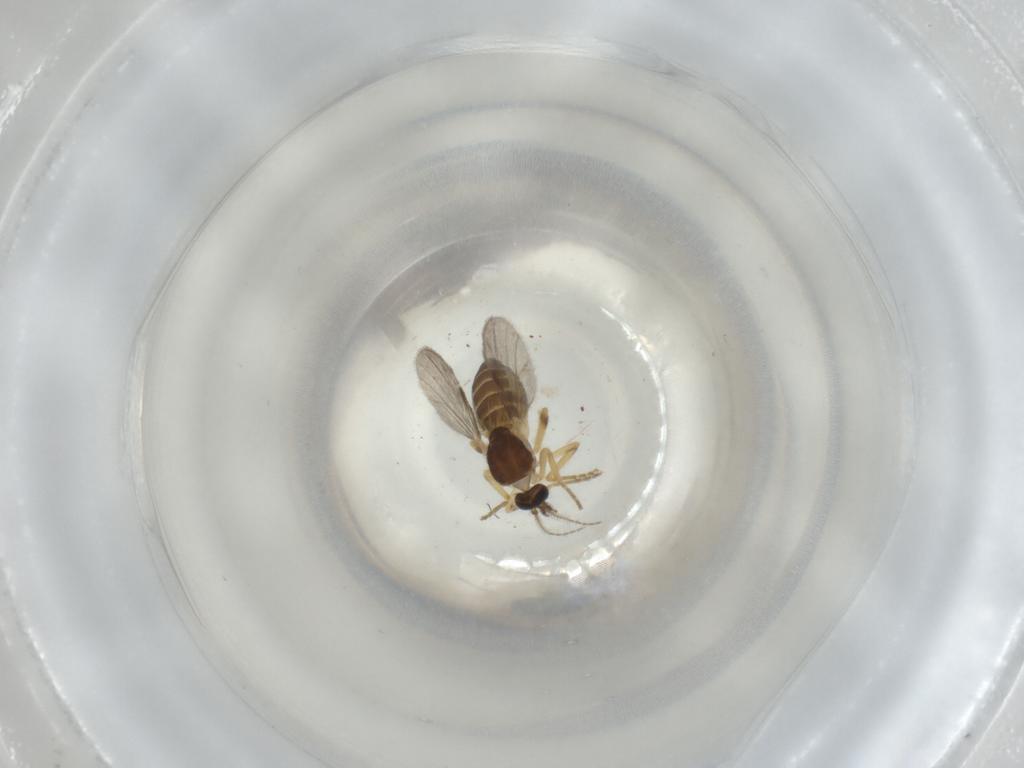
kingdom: Animalia
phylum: Arthropoda
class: Insecta
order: Diptera
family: Ceratopogonidae
